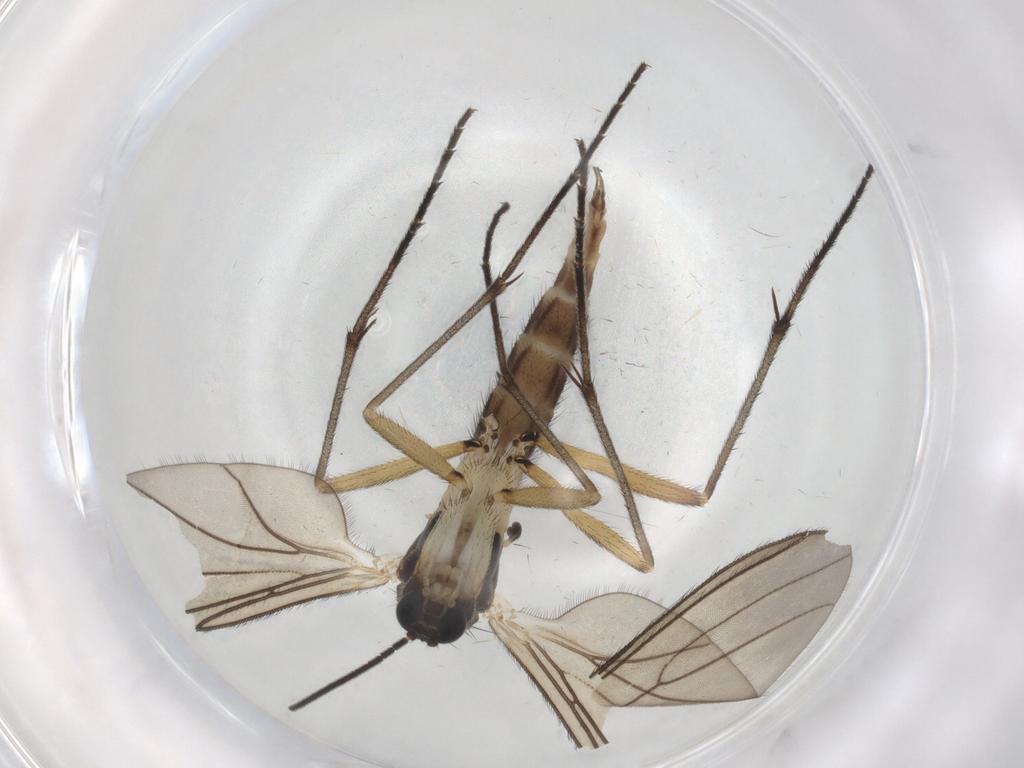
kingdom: Animalia
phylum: Arthropoda
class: Insecta
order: Diptera
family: Sciaridae
